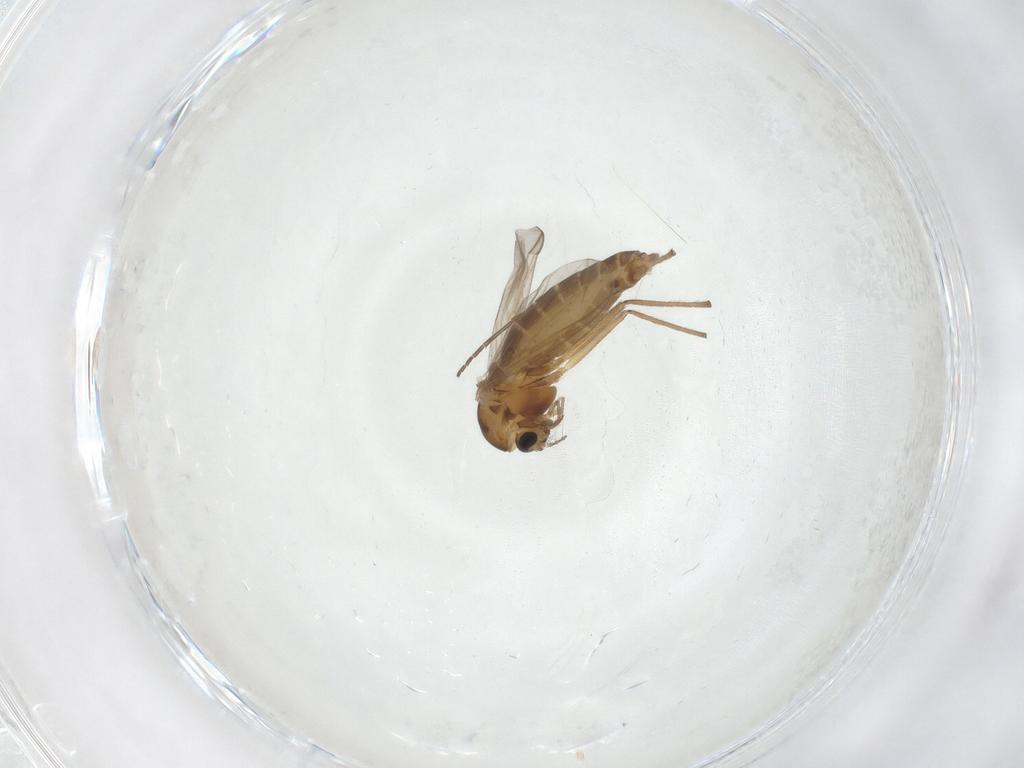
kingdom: Animalia
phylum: Arthropoda
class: Insecta
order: Diptera
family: Chironomidae
